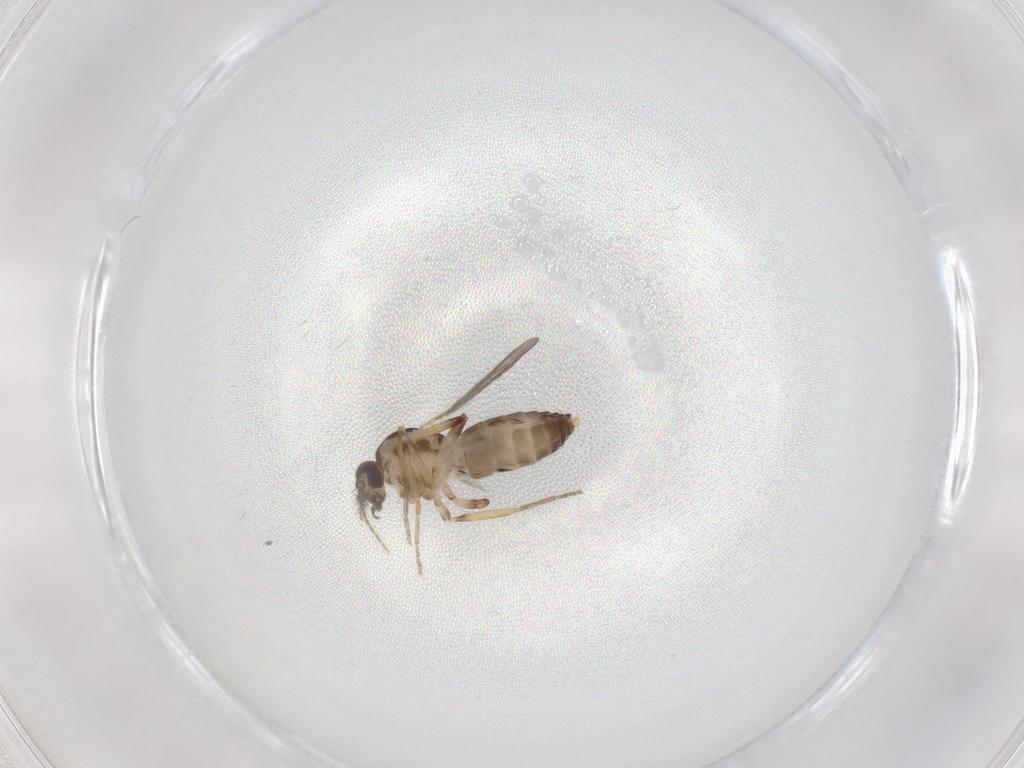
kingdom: Animalia
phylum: Arthropoda
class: Insecta
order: Diptera
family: Ceratopogonidae
